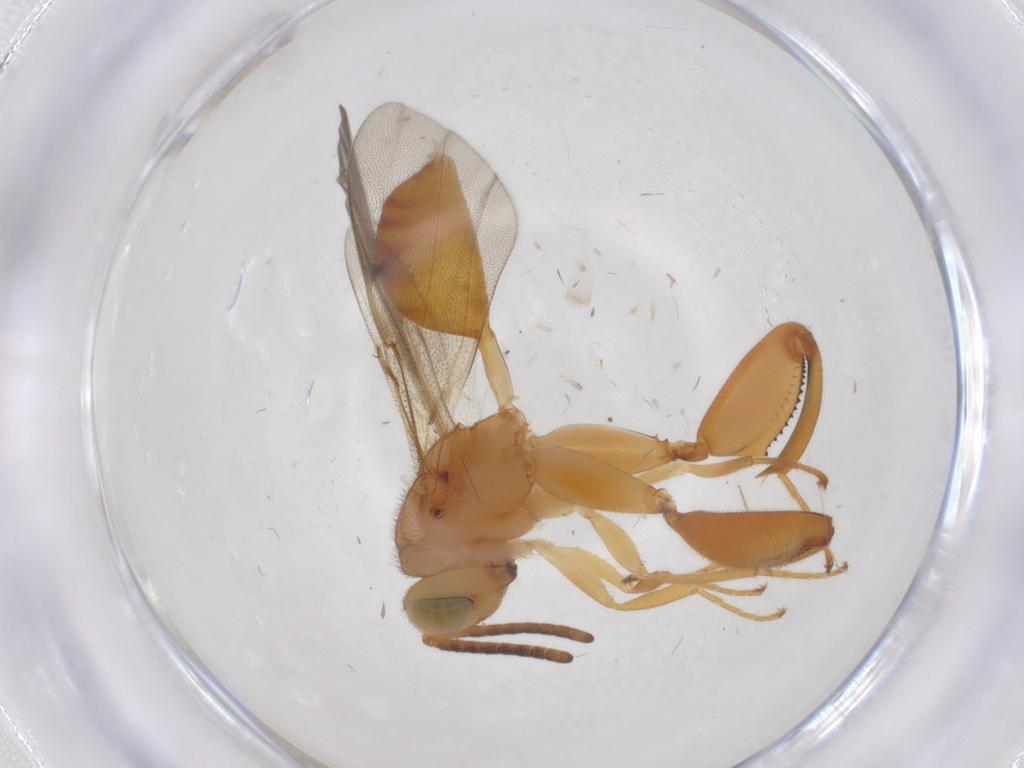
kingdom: Animalia
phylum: Arthropoda
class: Insecta
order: Hymenoptera
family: Chalcididae
